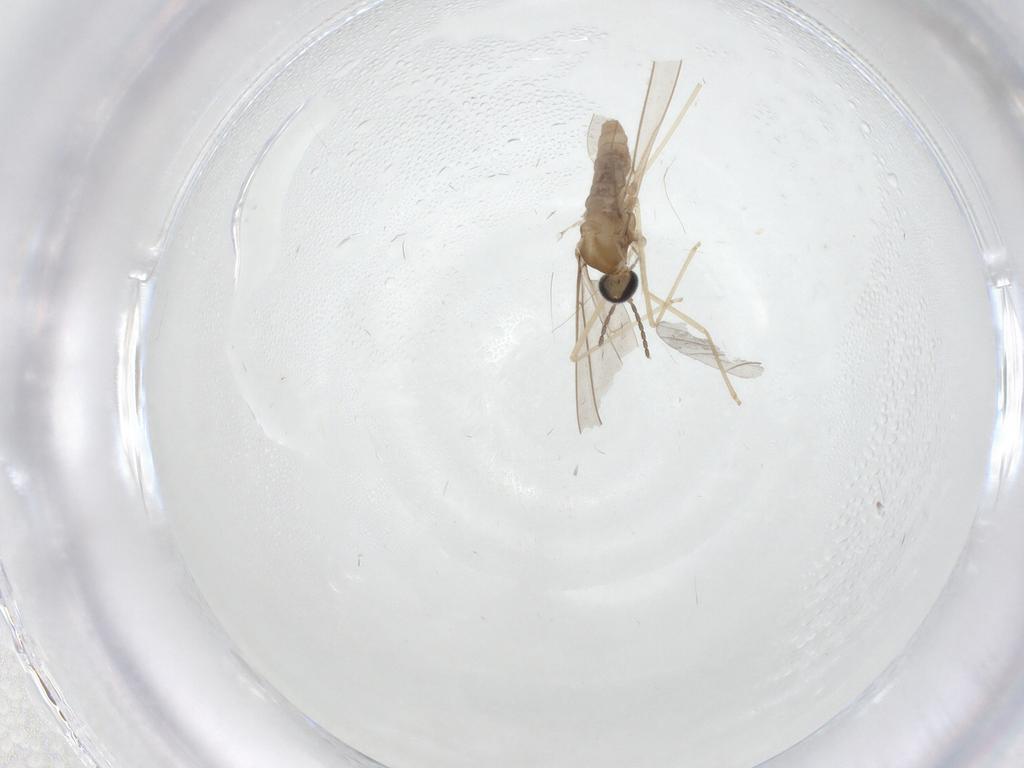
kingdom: Animalia
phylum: Arthropoda
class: Insecta
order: Diptera
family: Cecidomyiidae
